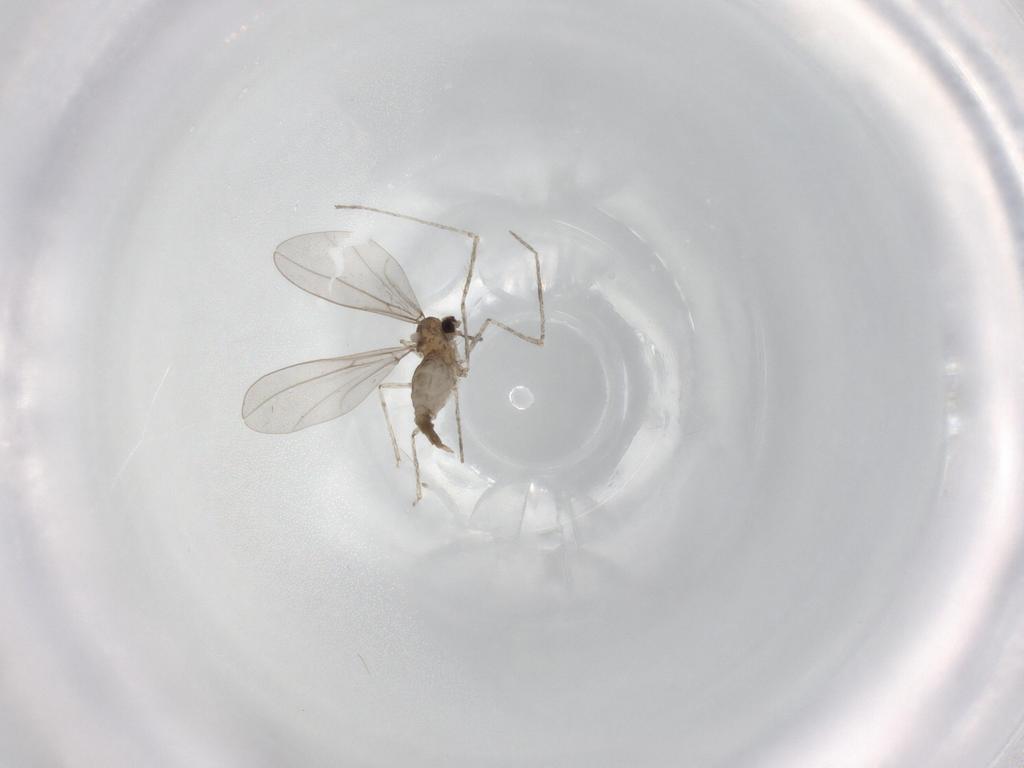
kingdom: Animalia
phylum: Arthropoda
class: Insecta
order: Diptera
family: Cecidomyiidae
